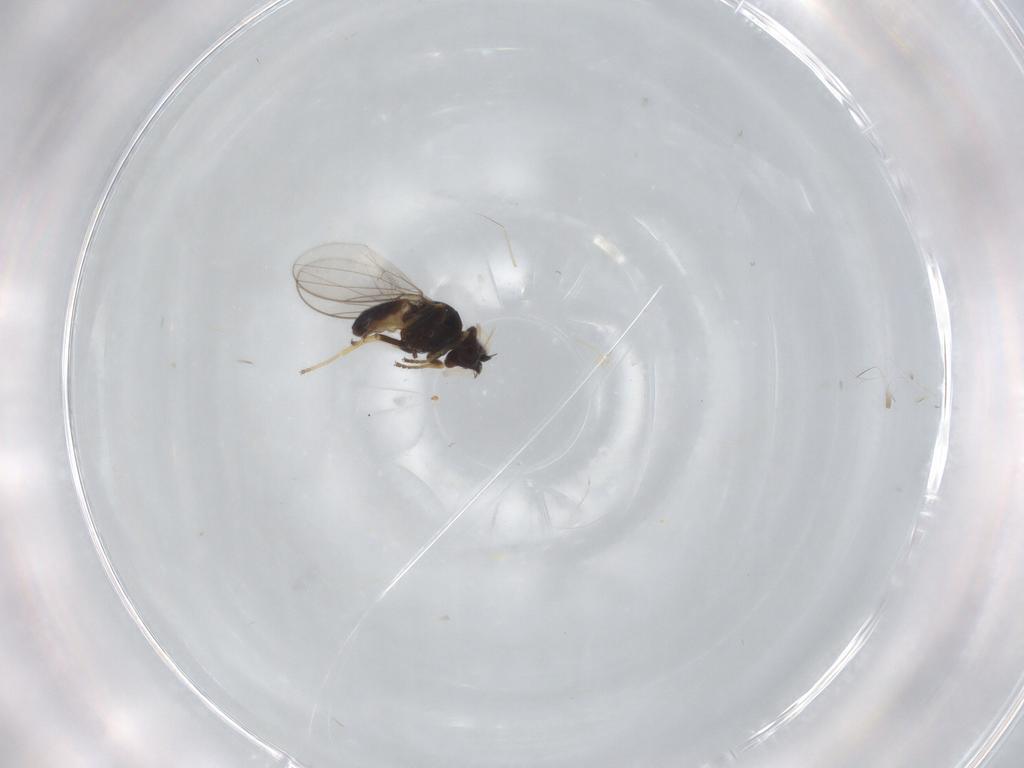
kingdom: Animalia
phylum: Arthropoda
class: Insecta
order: Diptera
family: Chloropidae
